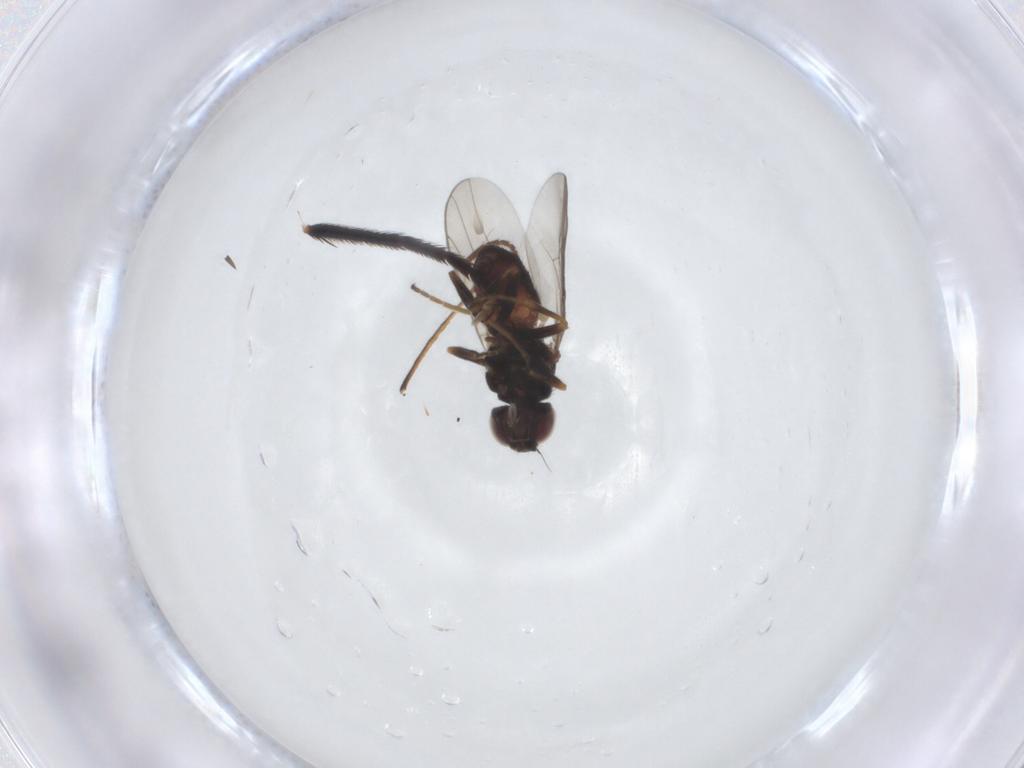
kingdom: Animalia
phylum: Arthropoda
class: Insecta
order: Diptera
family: Chloropidae
